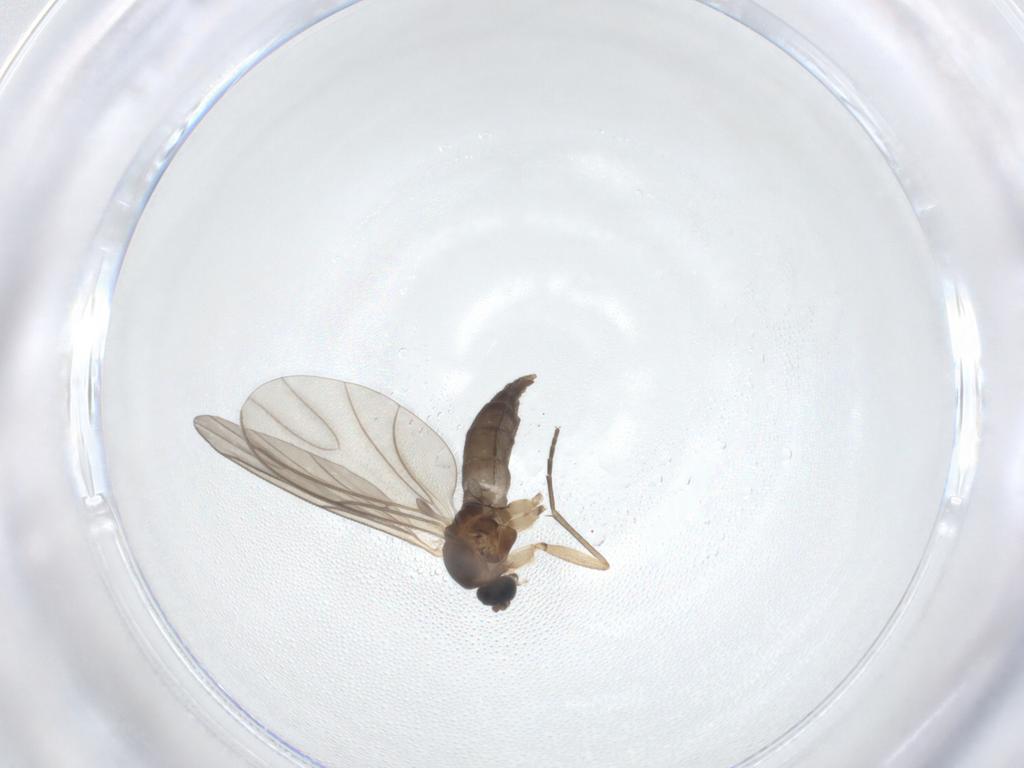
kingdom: Animalia
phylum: Arthropoda
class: Insecta
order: Diptera
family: Sciaridae
